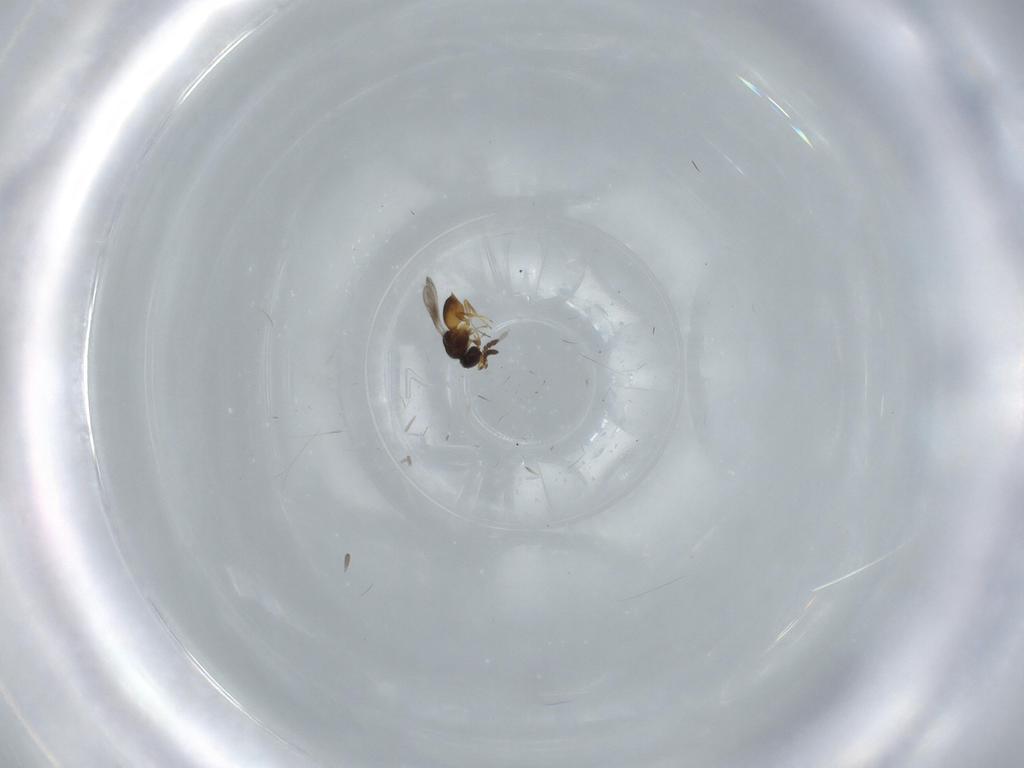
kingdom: Animalia
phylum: Arthropoda
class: Insecta
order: Hymenoptera
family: Ceraphronidae
